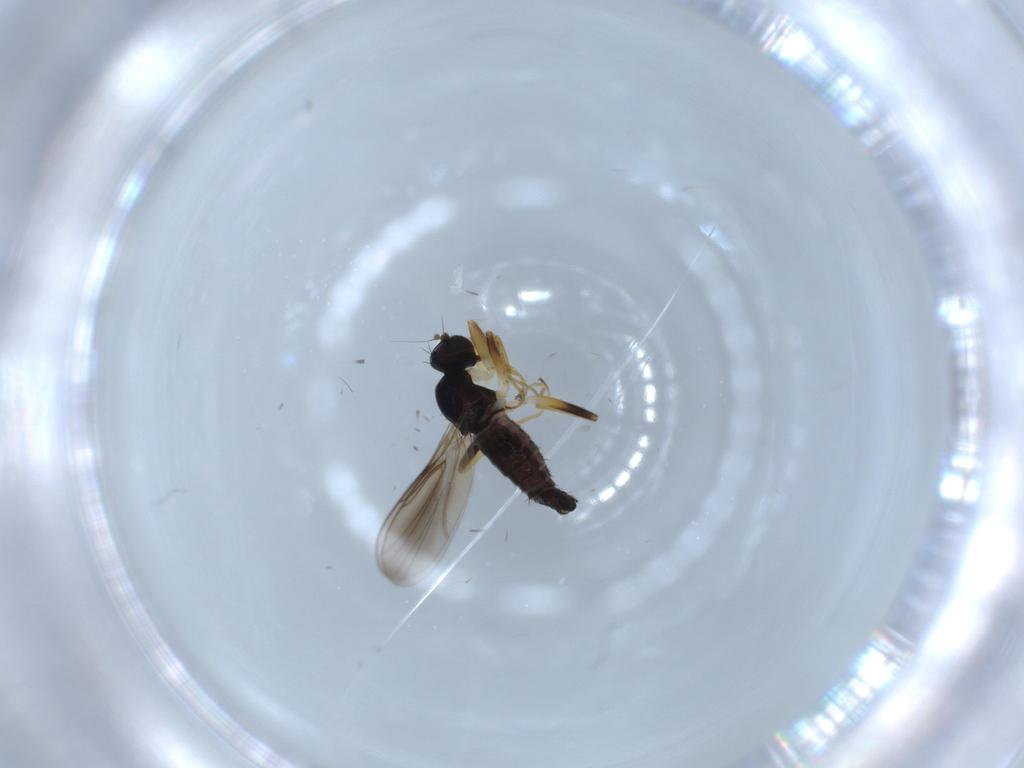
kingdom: Animalia
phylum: Arthropoda
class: Insecta
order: Diptera
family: Hybotidae
